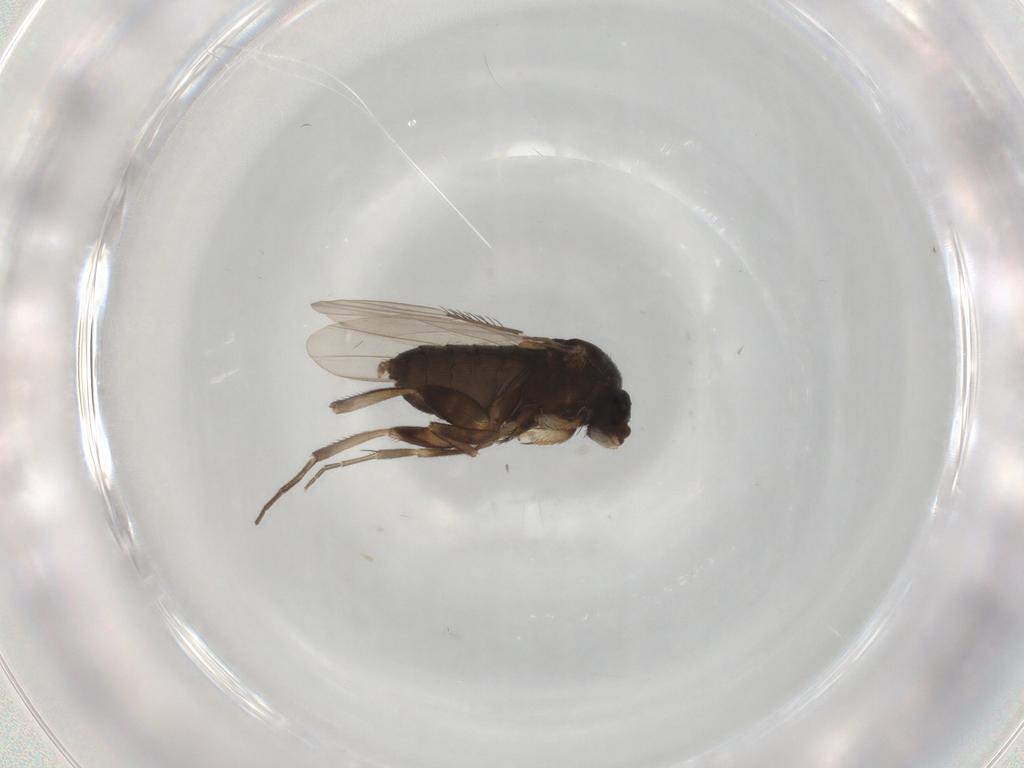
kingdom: Animalia
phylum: Arthropoda
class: Insecta
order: Diptera
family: Phoridae
